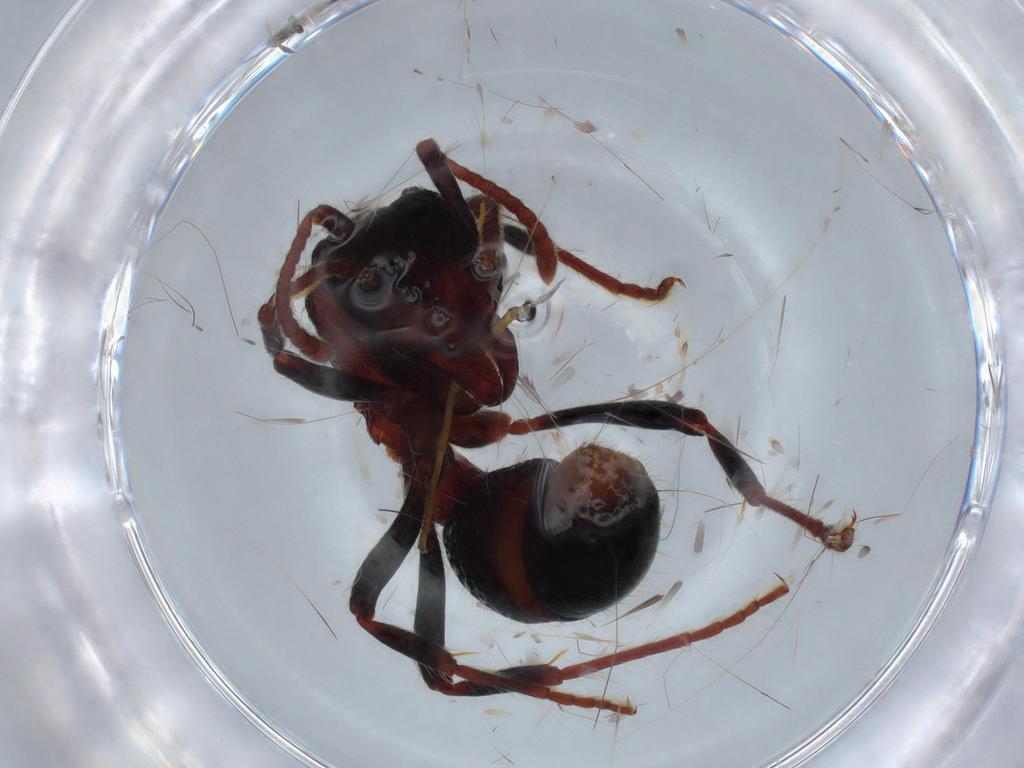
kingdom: Animalia
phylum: Arthropoda
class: Insecta
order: Hymenoptera
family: Formicidae
